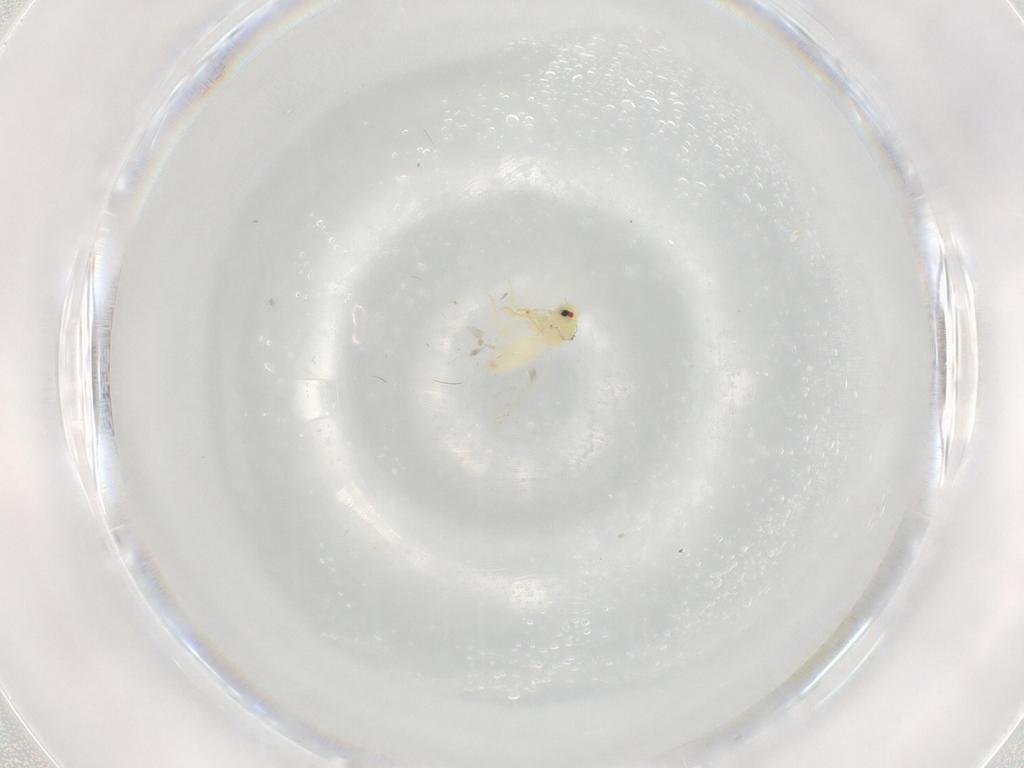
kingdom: Animalia
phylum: Arthropoda
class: Insecta
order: Hemiptera
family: Aleyrodidae
